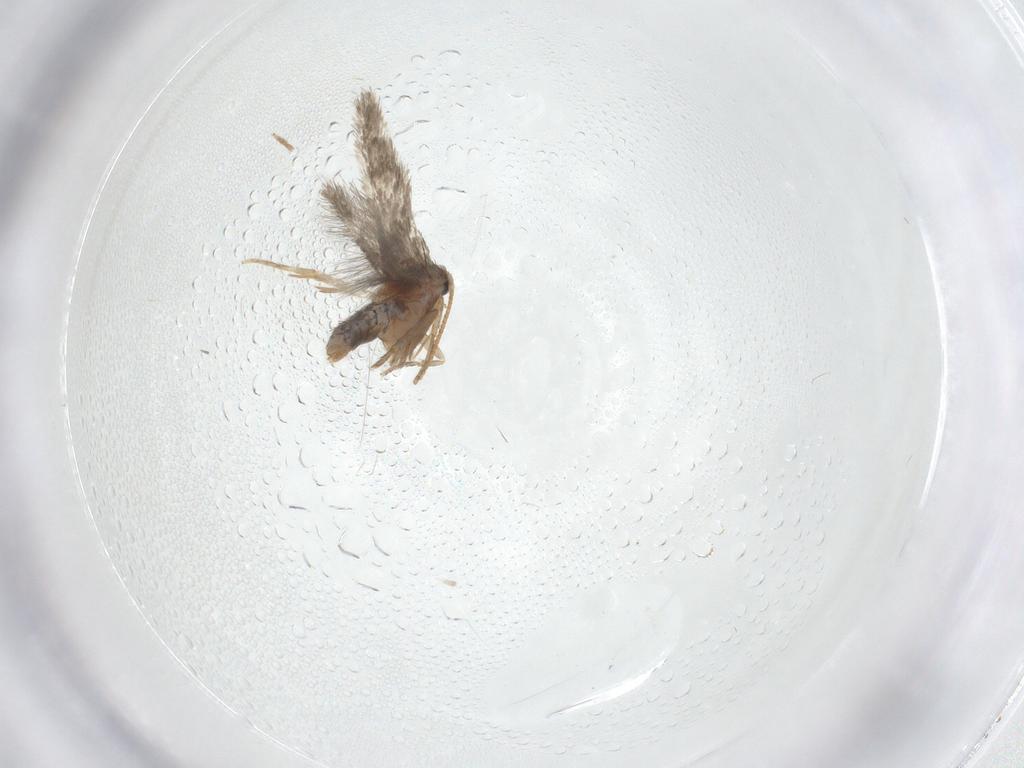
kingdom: Animalia
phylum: Arthropoda
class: Insecta
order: Lepidoptera
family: Nepticulidae
